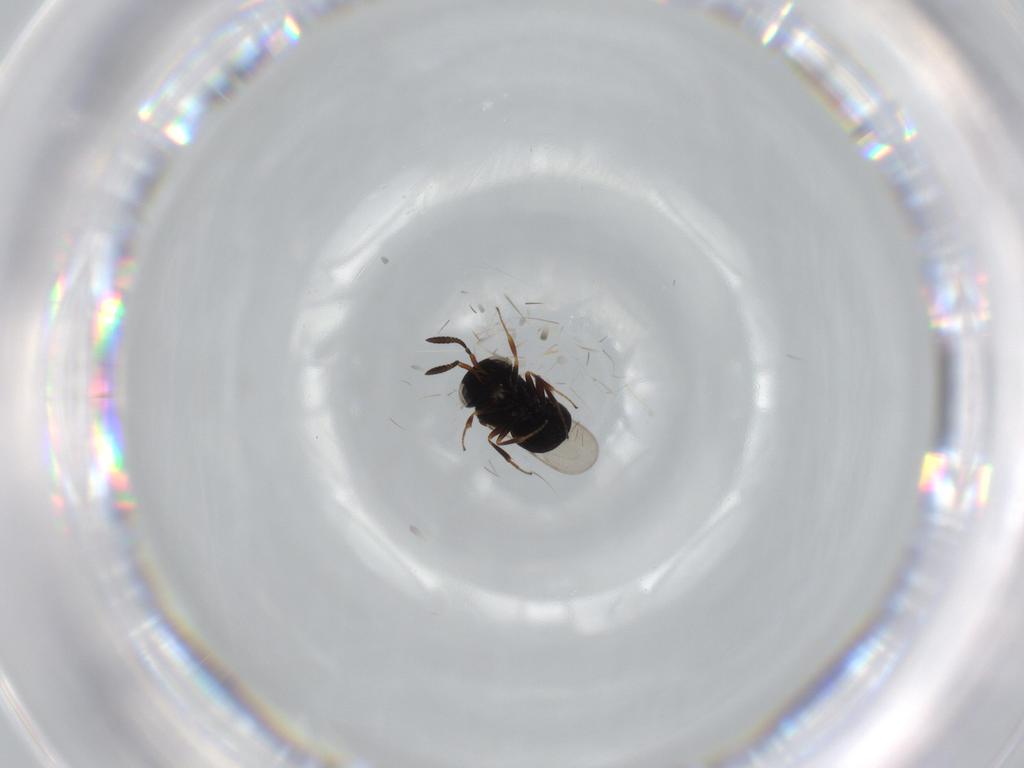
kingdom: Animalia
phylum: Arthropoda
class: Insecta
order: Hymenoptera
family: Scelionidae
